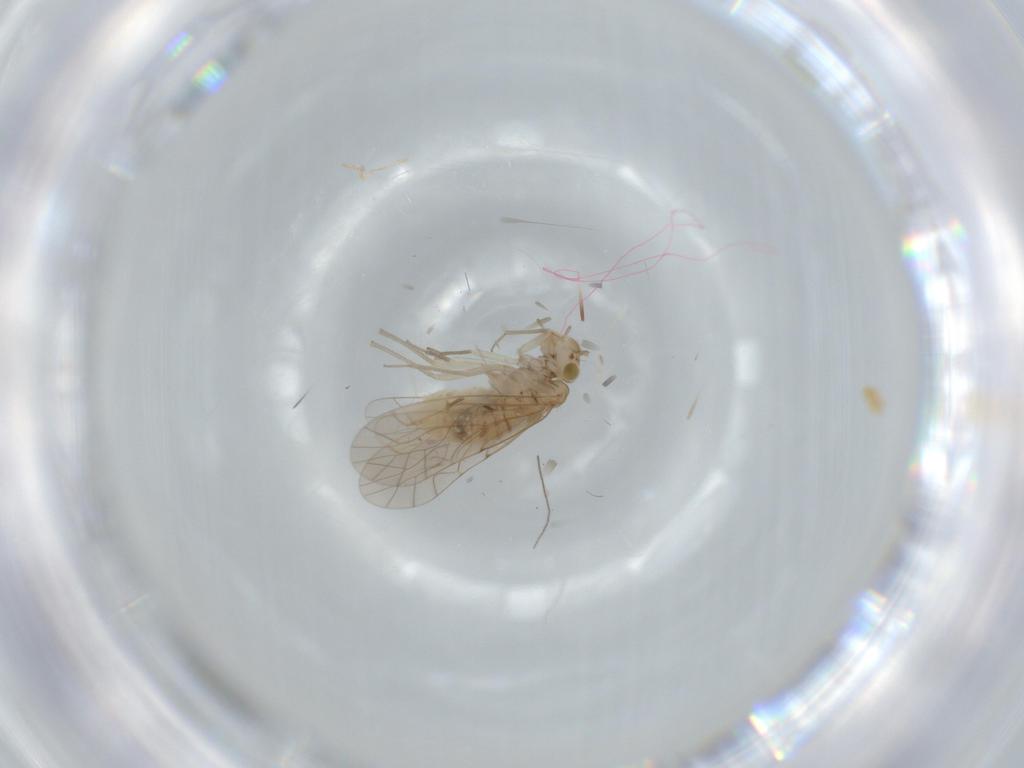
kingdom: Animalia
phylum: Arthropoda
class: Insecta
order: Psocodea
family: Lachesillidae
